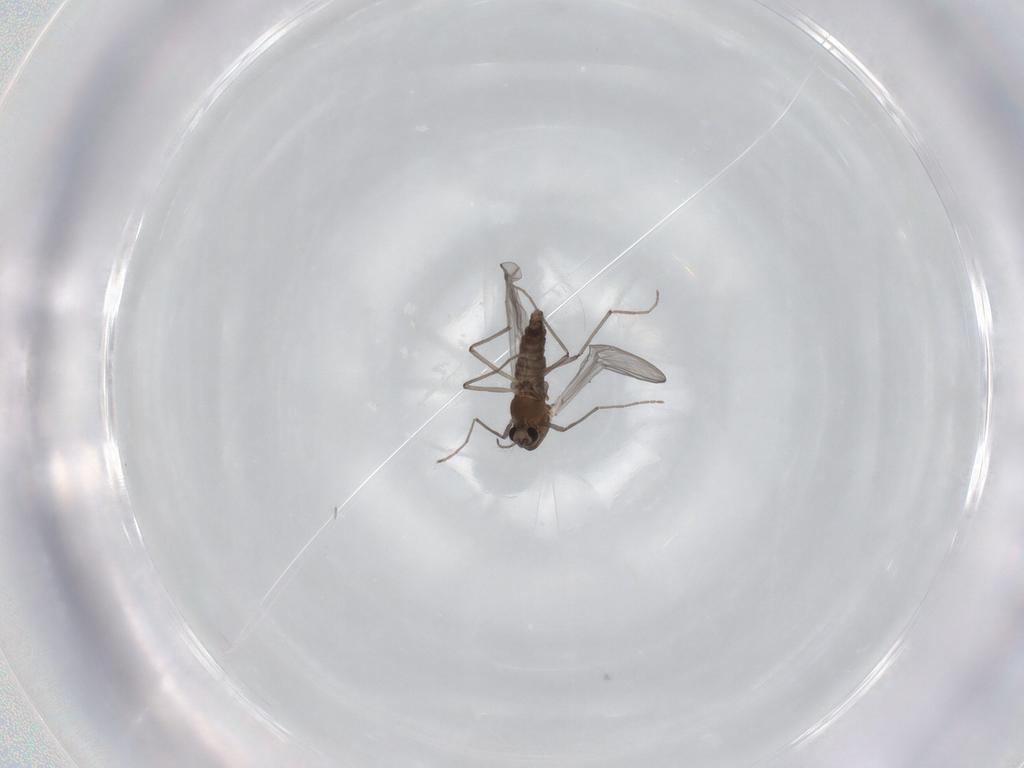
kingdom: Animalia
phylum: Arthropoda
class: Insecta
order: Diptera
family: Chironomidae
